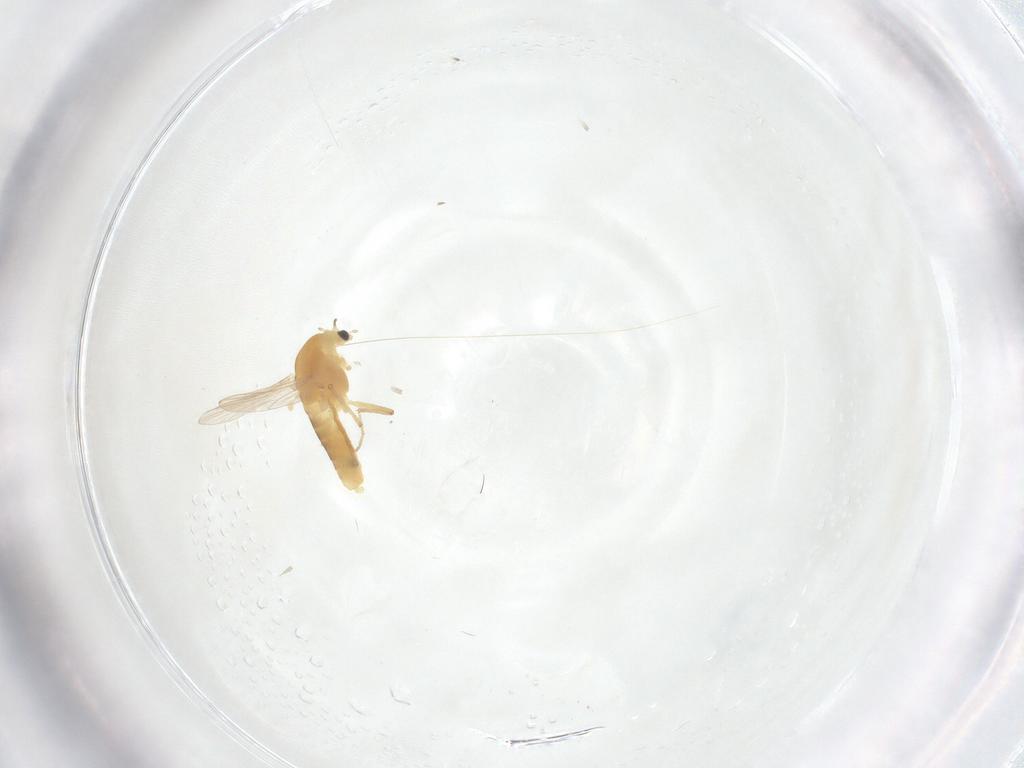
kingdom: Animalia
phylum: Arthropoda
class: Insecta
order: Diptera
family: Chironomidae
